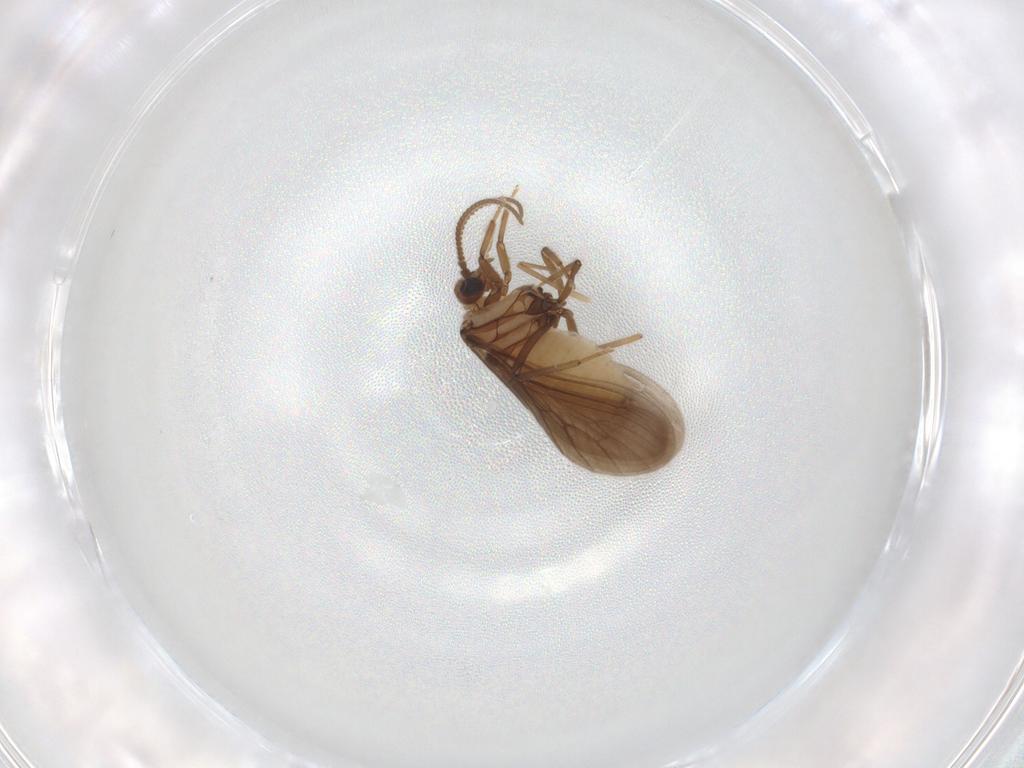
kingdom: Animalia
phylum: Arthropoda
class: Insecta
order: Neuroptera
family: Coniopterygidae
